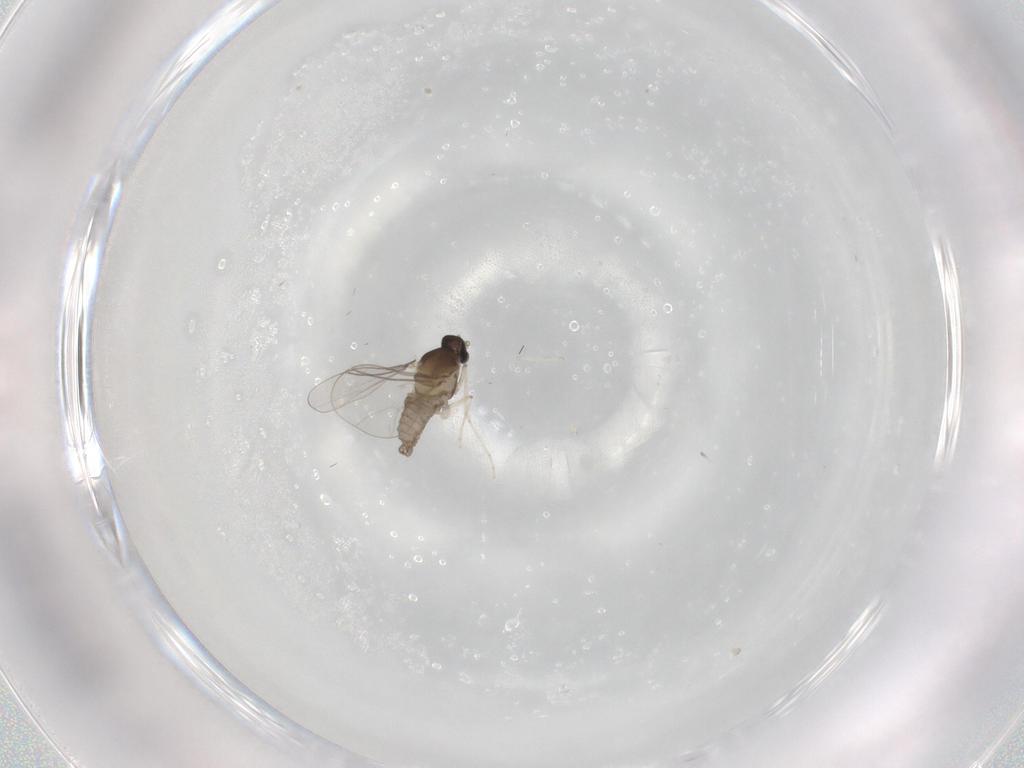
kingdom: Animalia
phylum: Arthropoda
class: Insecta
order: Diptera
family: Cecidomyiidae
